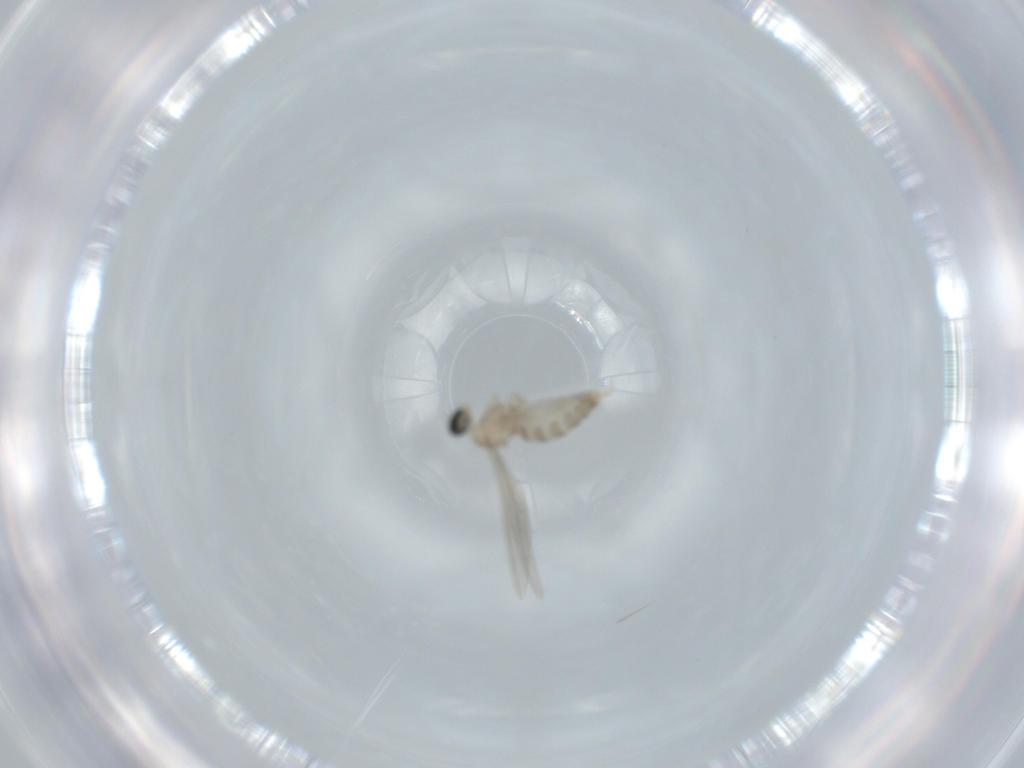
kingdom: Animalia
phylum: Arthropoda
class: Insecta
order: Diptera
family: Cecidomyiidae
